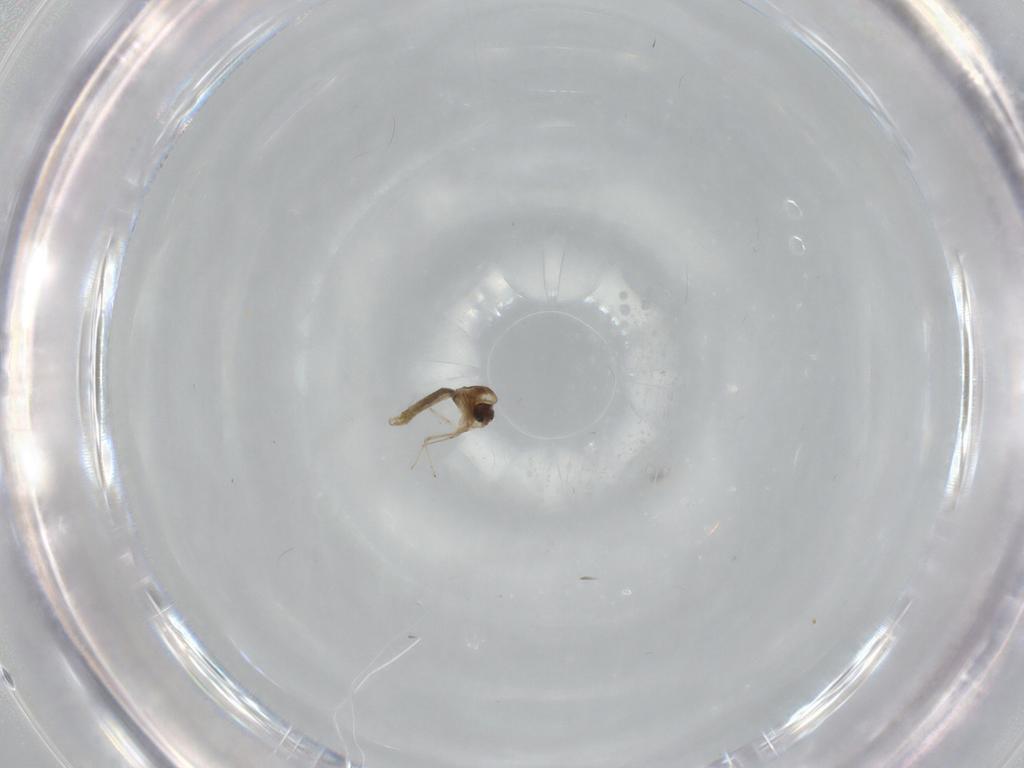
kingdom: Animalia
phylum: Arthropoda
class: Insecta
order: Diptera
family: Chironomidae
